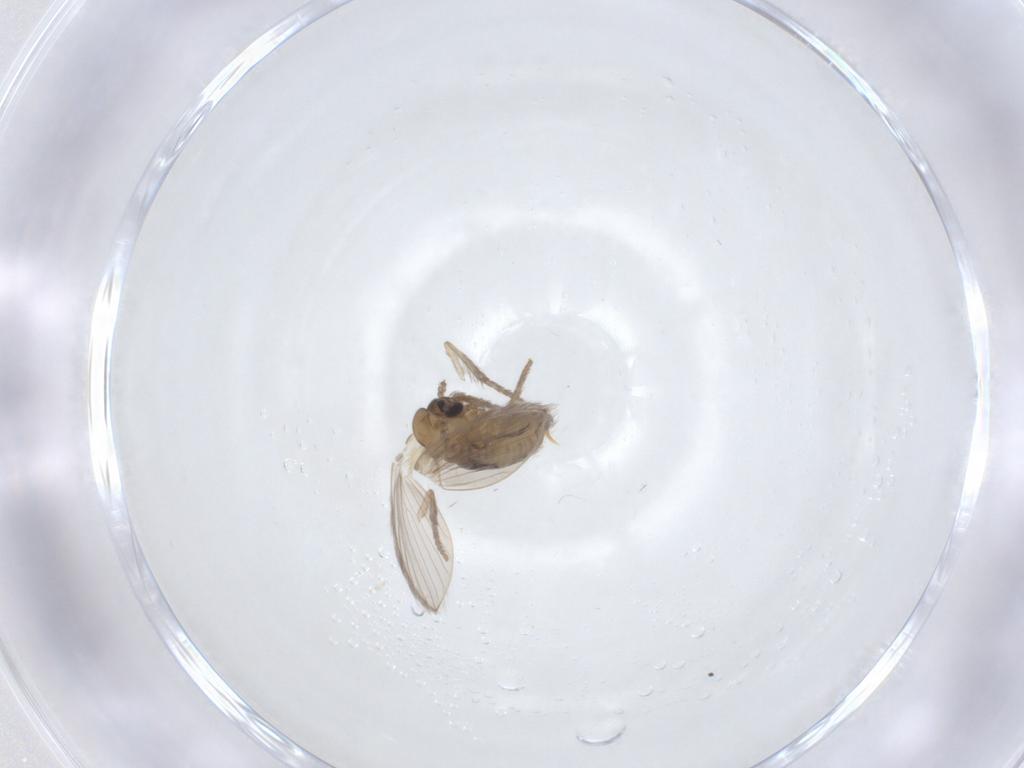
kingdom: Animalia
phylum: Arthropoda
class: Insecta
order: Diptera
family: Psychodidae
